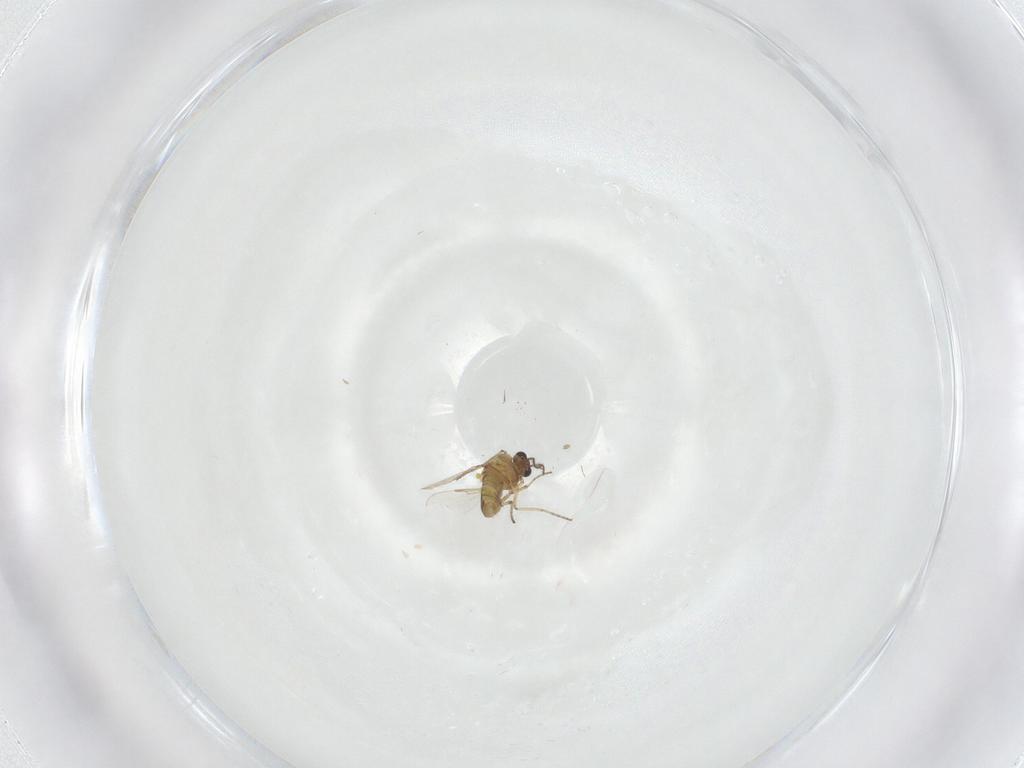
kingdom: Animalia
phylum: Arthropoda
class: Insecta
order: Diptera
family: Ceratopogonidae
